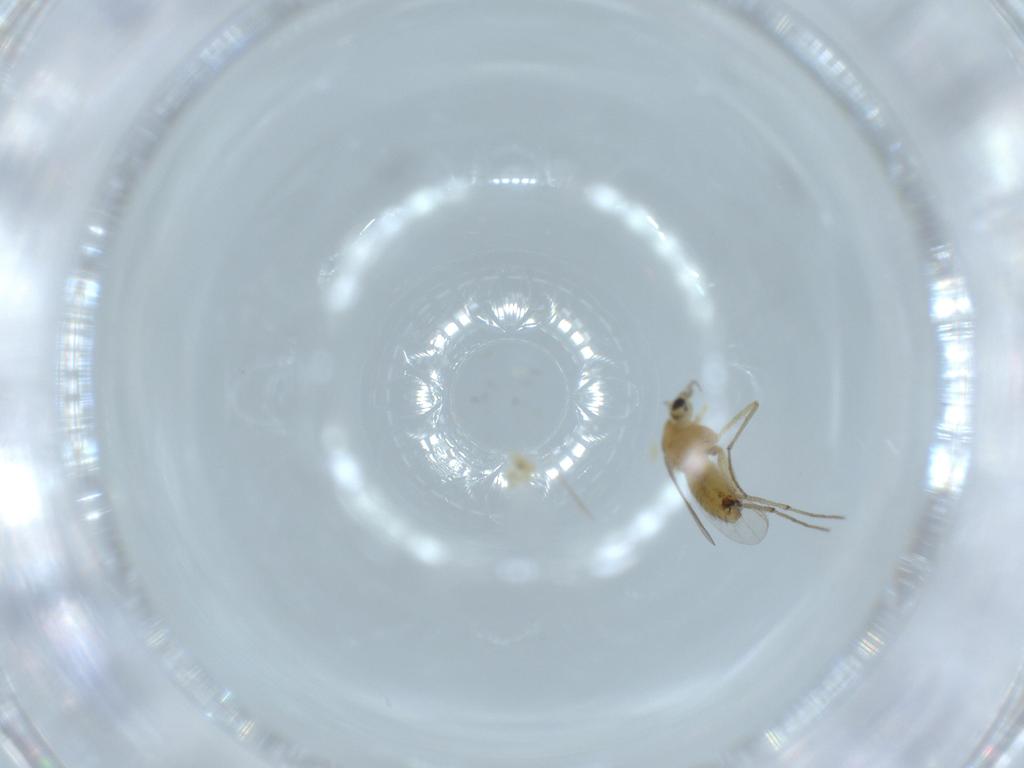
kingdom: Animalia
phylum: Arthropoda
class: Insecta
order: Diptera
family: Chironomidae
